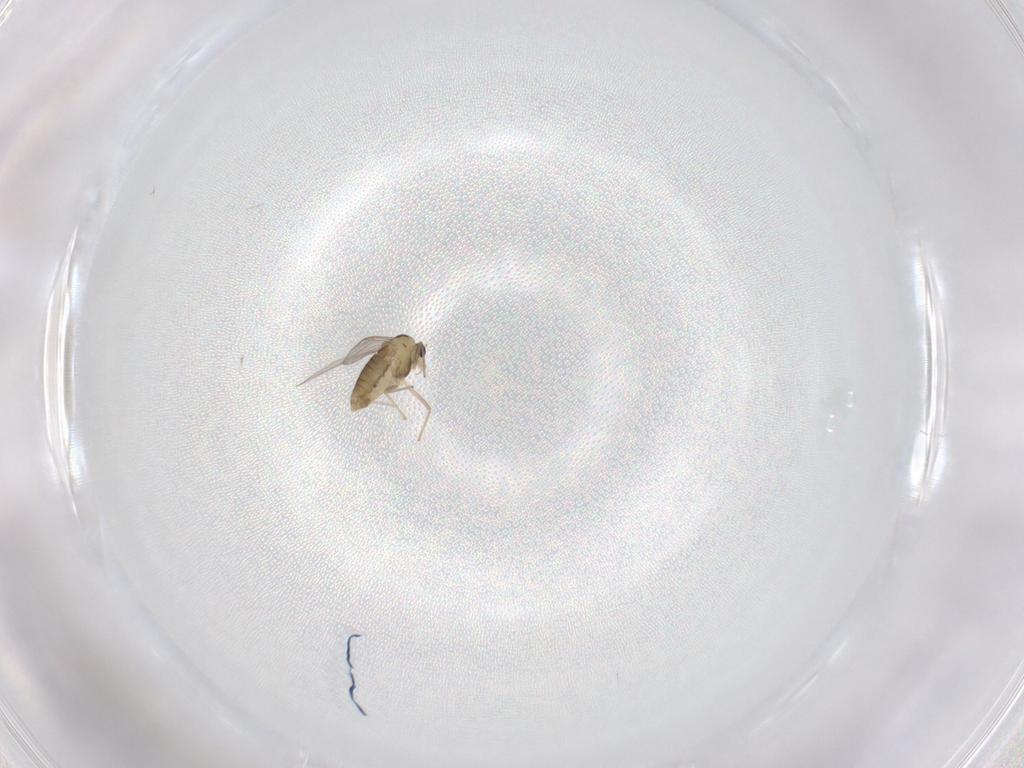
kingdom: Animalia
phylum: Arthropoda
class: Insecta
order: Diptera
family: Chironomidae
